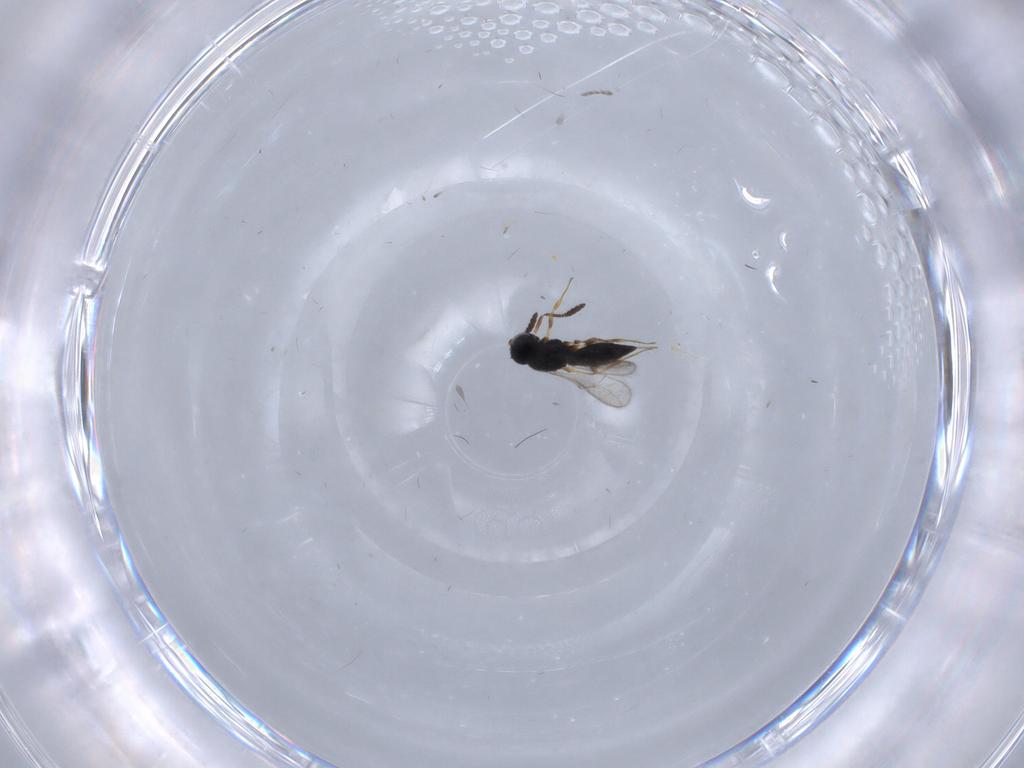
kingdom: Animalia
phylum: Arthropoda
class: Insecta
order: Hymenoptera
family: Scelionidae
